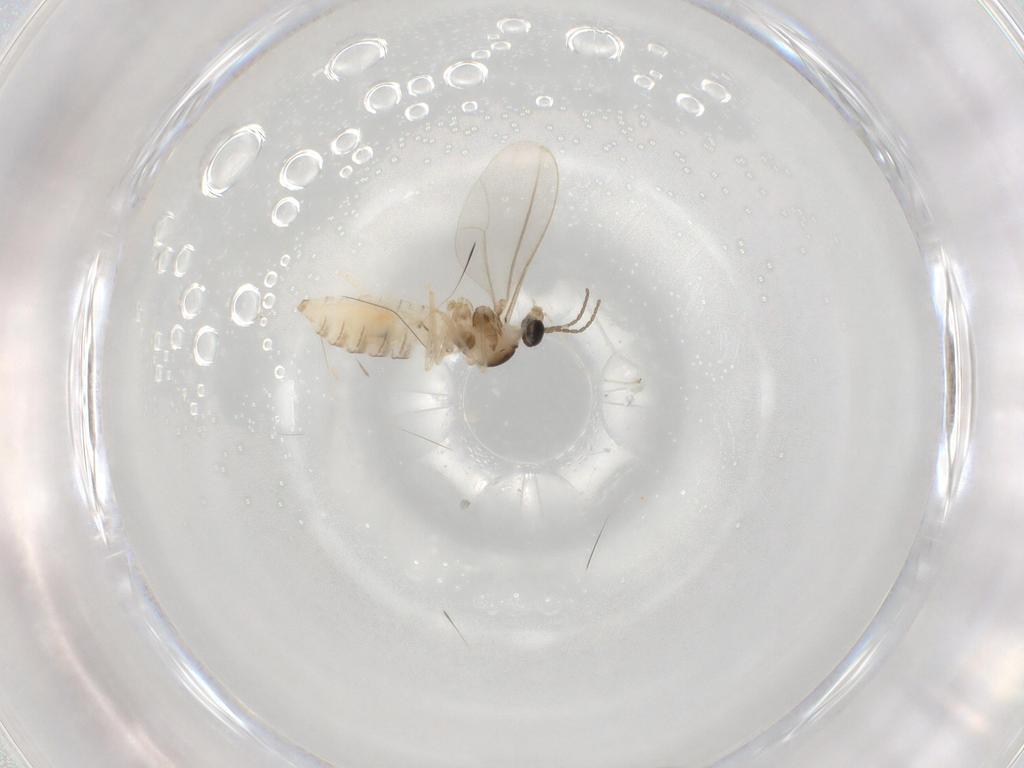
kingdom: Animalia
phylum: Arthropoda
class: Insecta
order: Diptera
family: Cecidomyiidae
